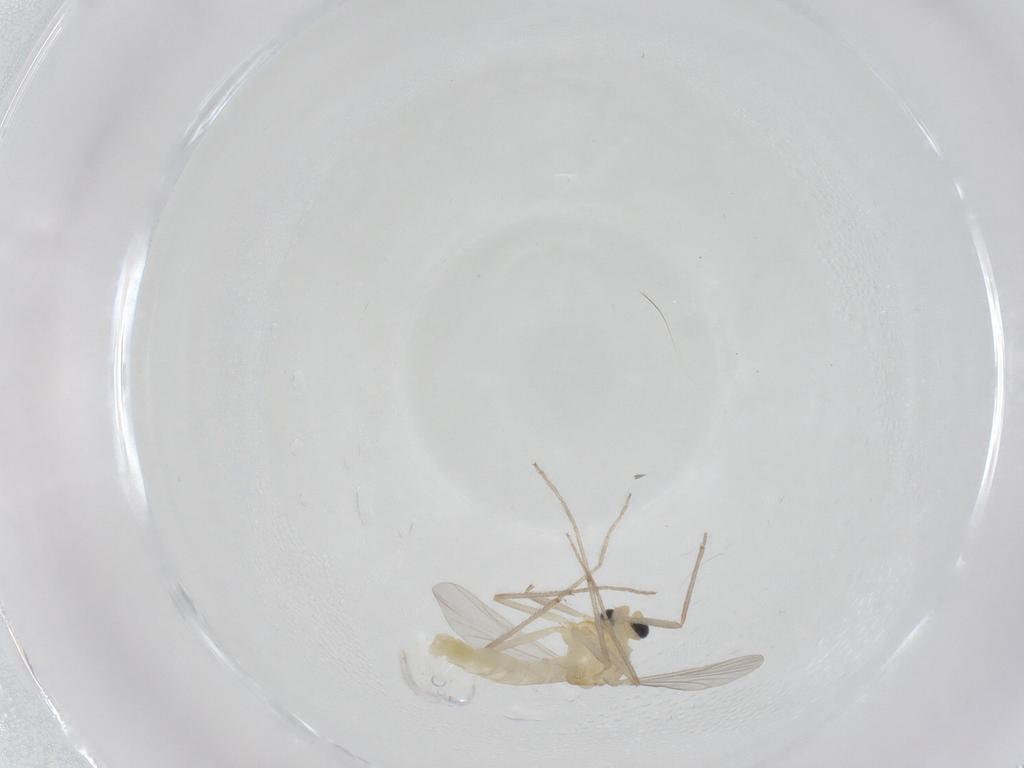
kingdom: Animalia
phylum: Arthropoda
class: Insecta
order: Diptera
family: Chironomidae
